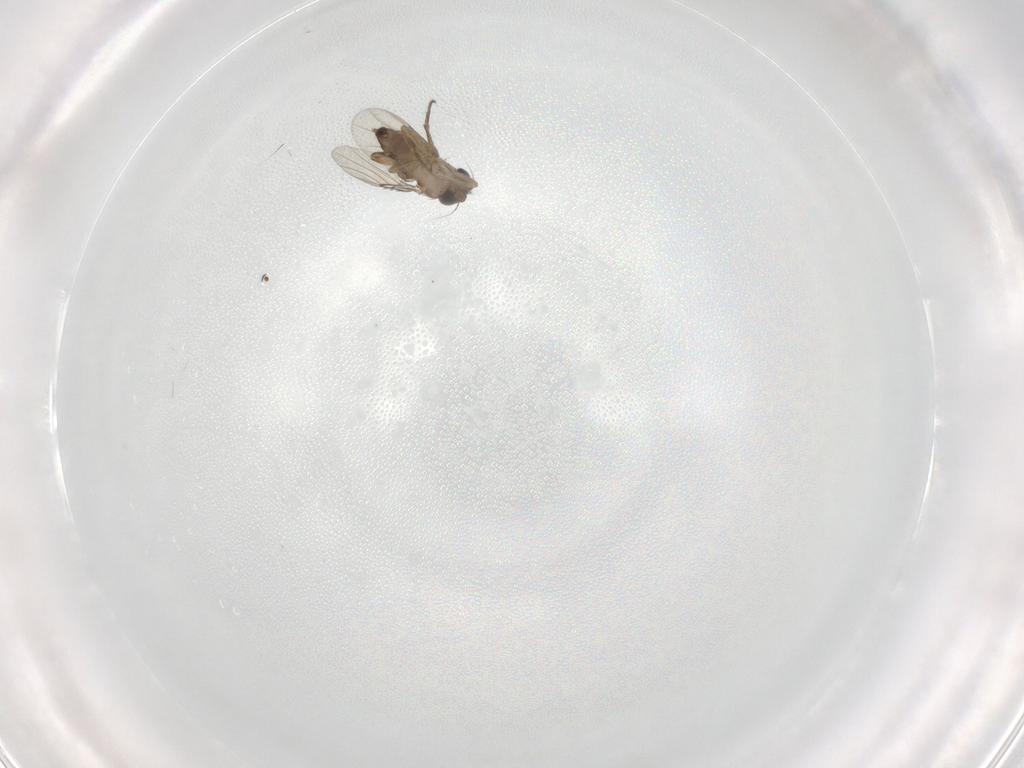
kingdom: Animalia
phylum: Arthropoda
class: Insecta
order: Diptera
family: Phoridae
